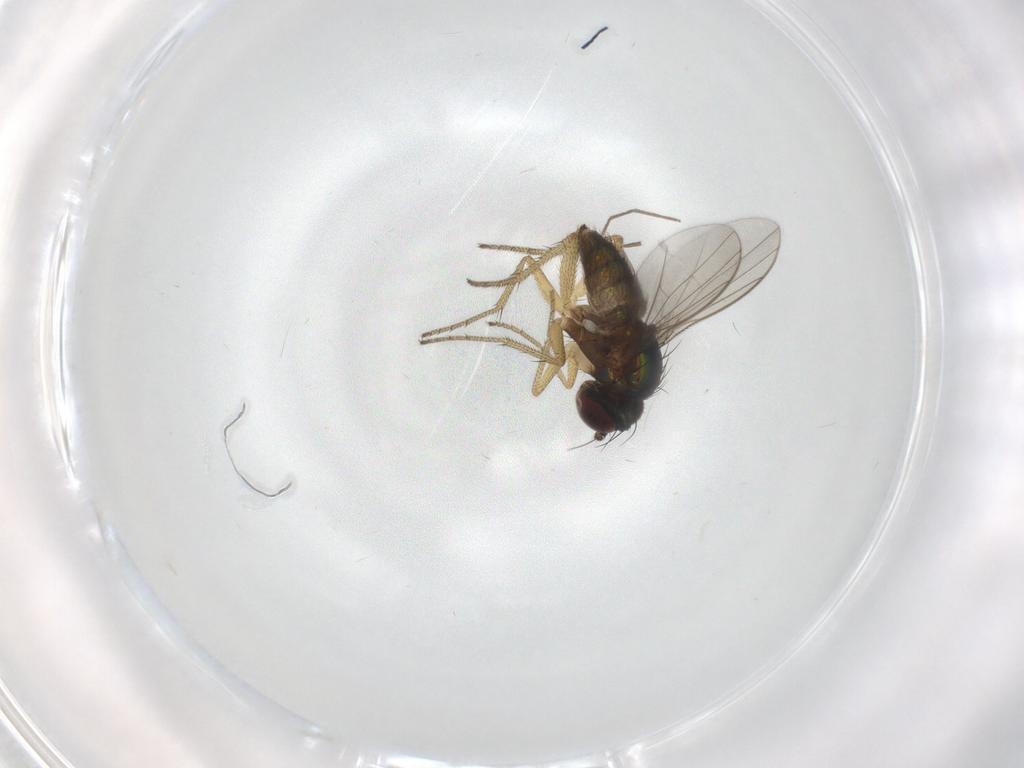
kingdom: Animalia
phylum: Arthropoda
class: Insecta
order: Diptera
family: Dolichopodidae
